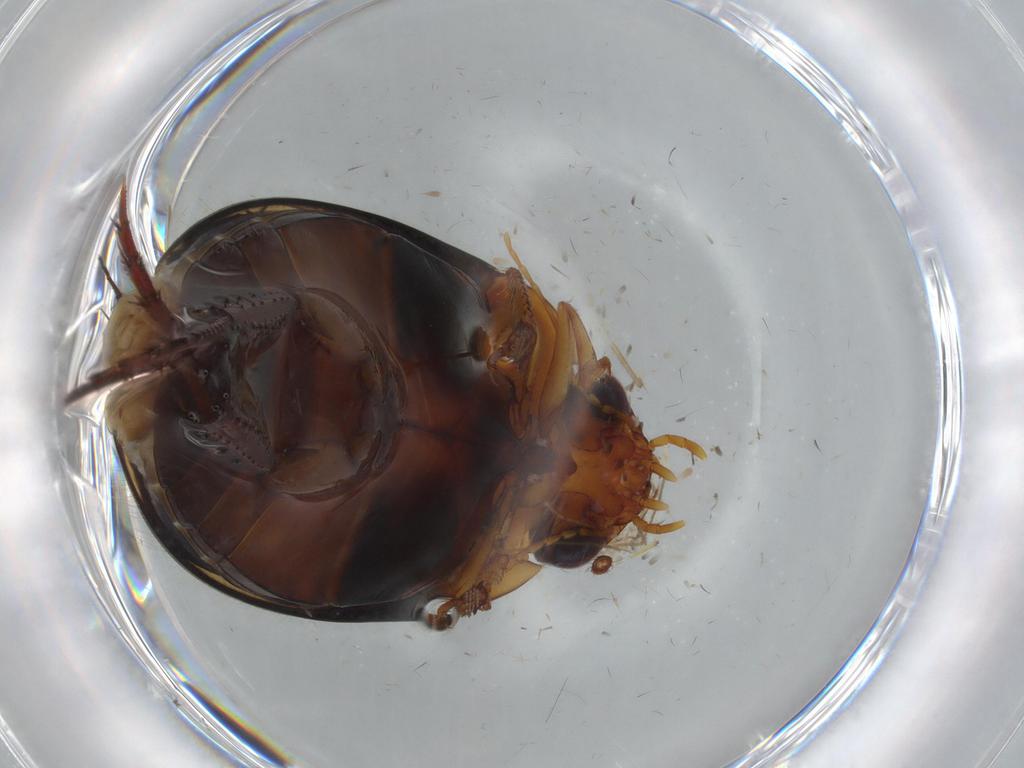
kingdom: Animalia
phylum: Arthropoda
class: Insecta
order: Coleoptera
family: Dytiscidae
